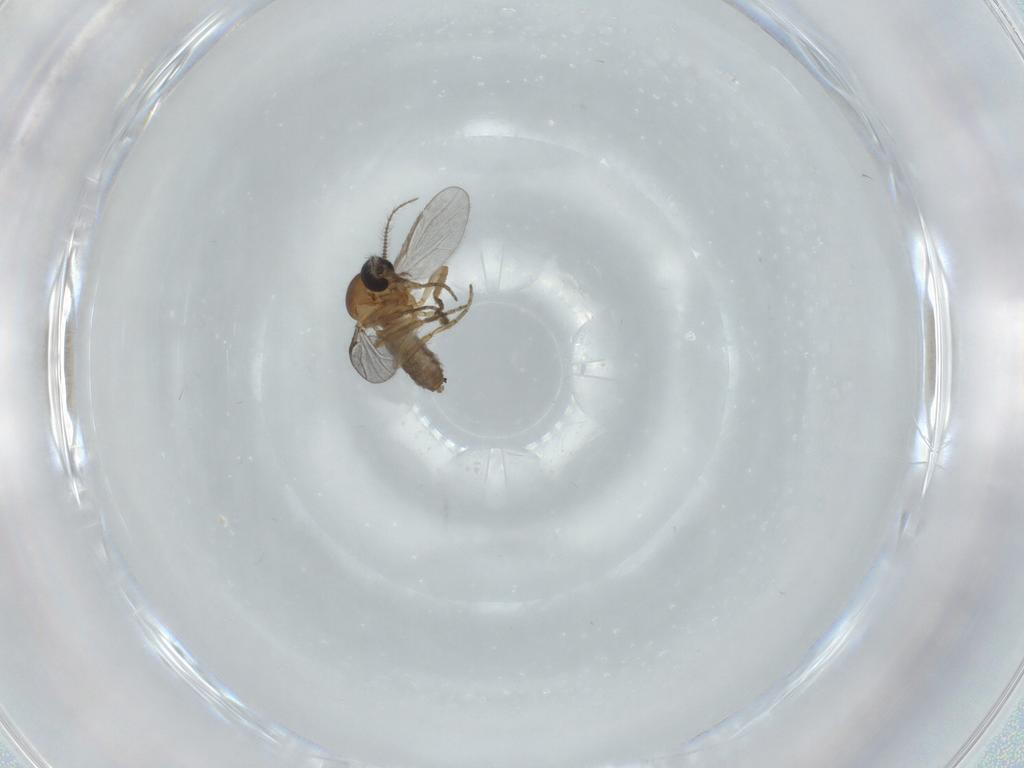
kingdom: Animalia
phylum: Arthropoda
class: Insecta
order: Diptera
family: Ceratopogonidae
